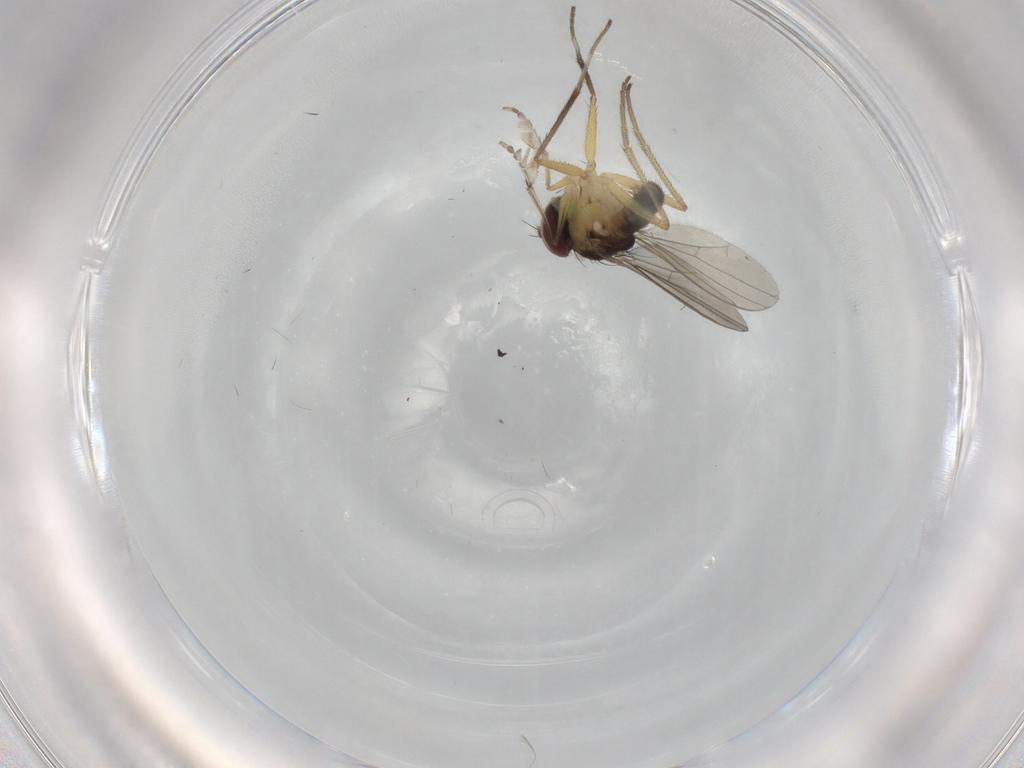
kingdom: Animalia
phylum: Arthropoda
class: Insecta
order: Diptera
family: Dolichopodidae
